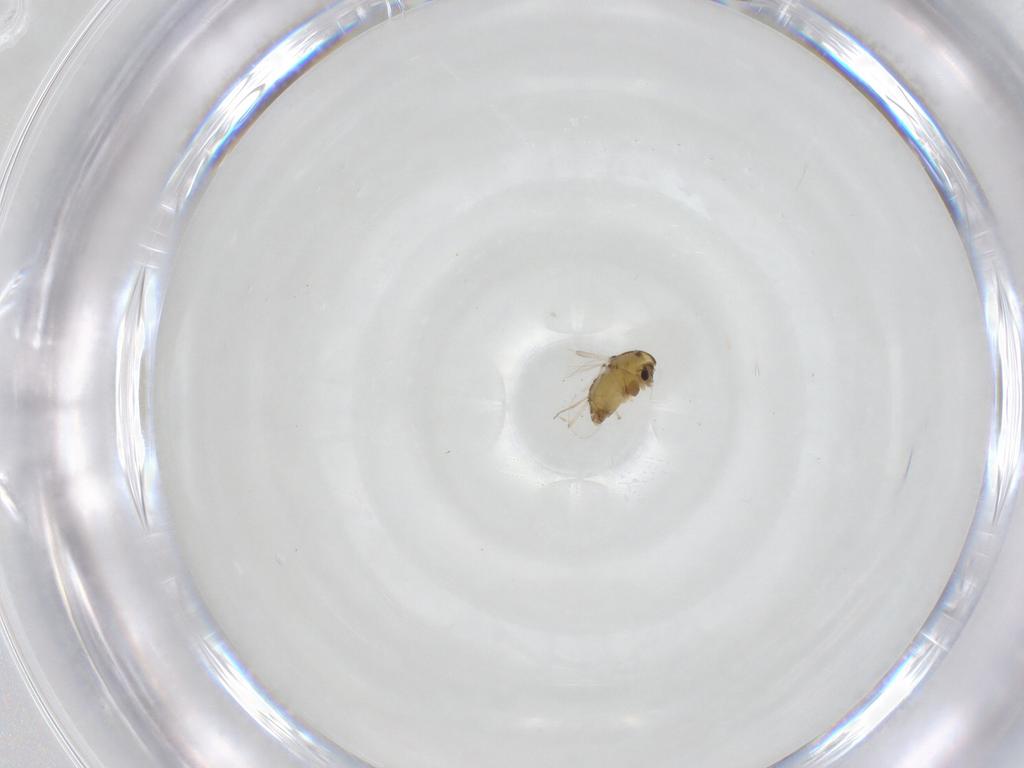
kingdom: Animalia
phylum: Arthropoda
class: Insecta
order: Diptera
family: Chironomidae
